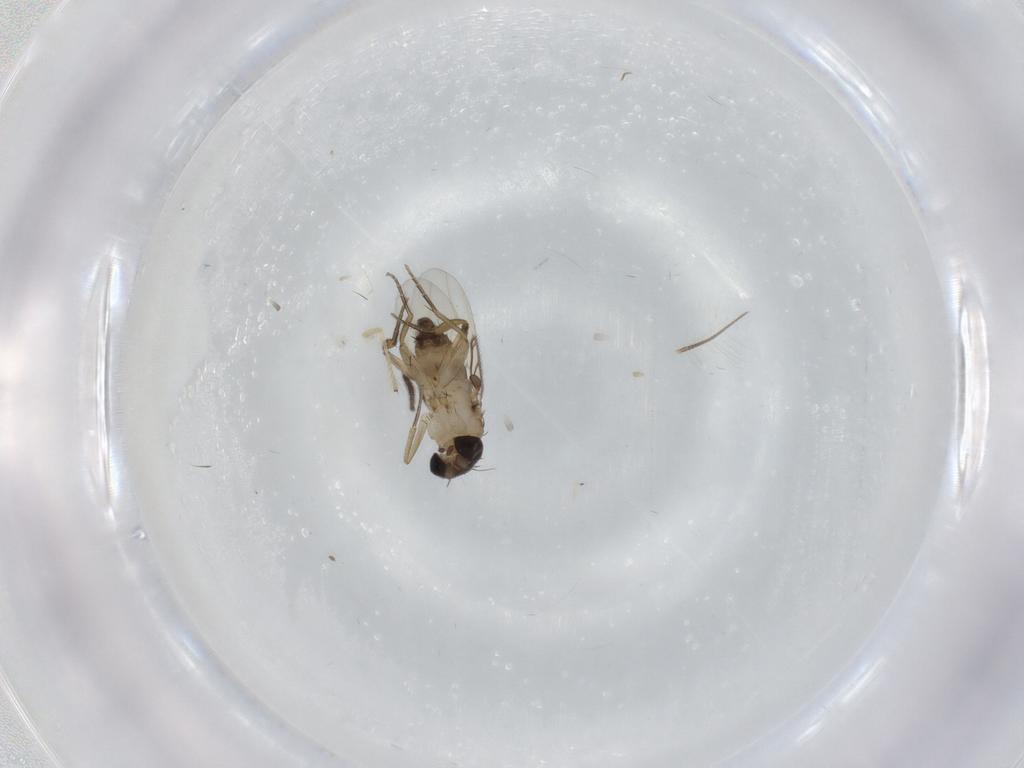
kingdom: Animalia
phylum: Arthropoda
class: Insecta
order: Diptera
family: Phoridae
